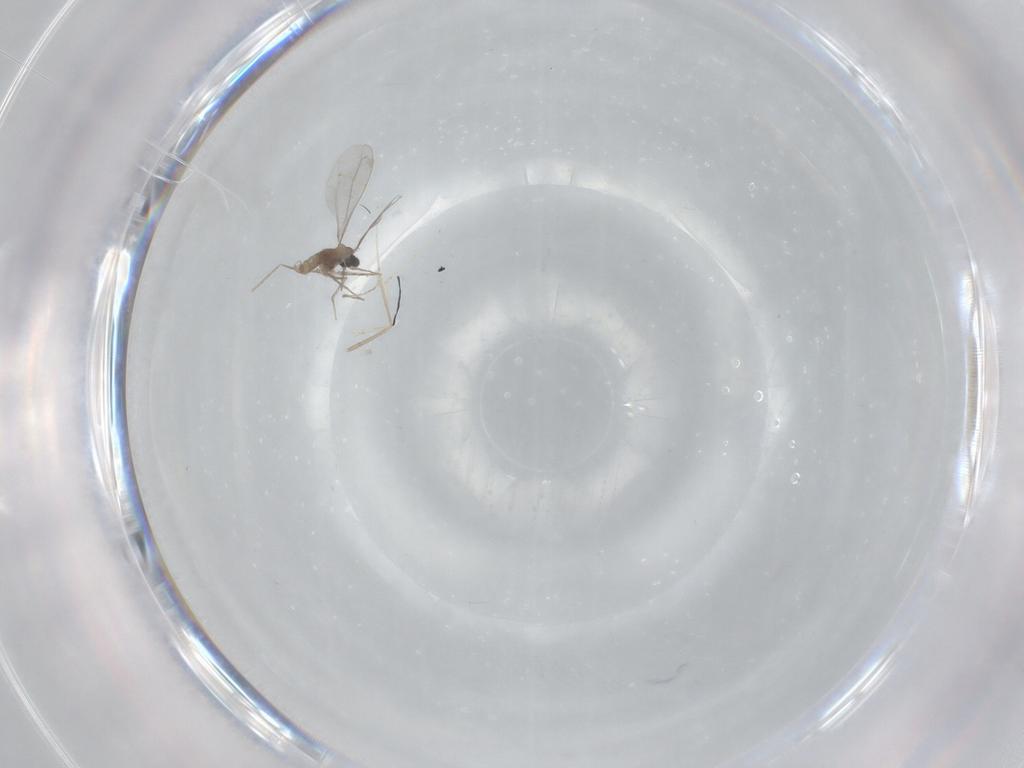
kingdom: Animalia
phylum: Arthropoda
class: Insecta
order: Diptera
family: Cecidomyiidae
